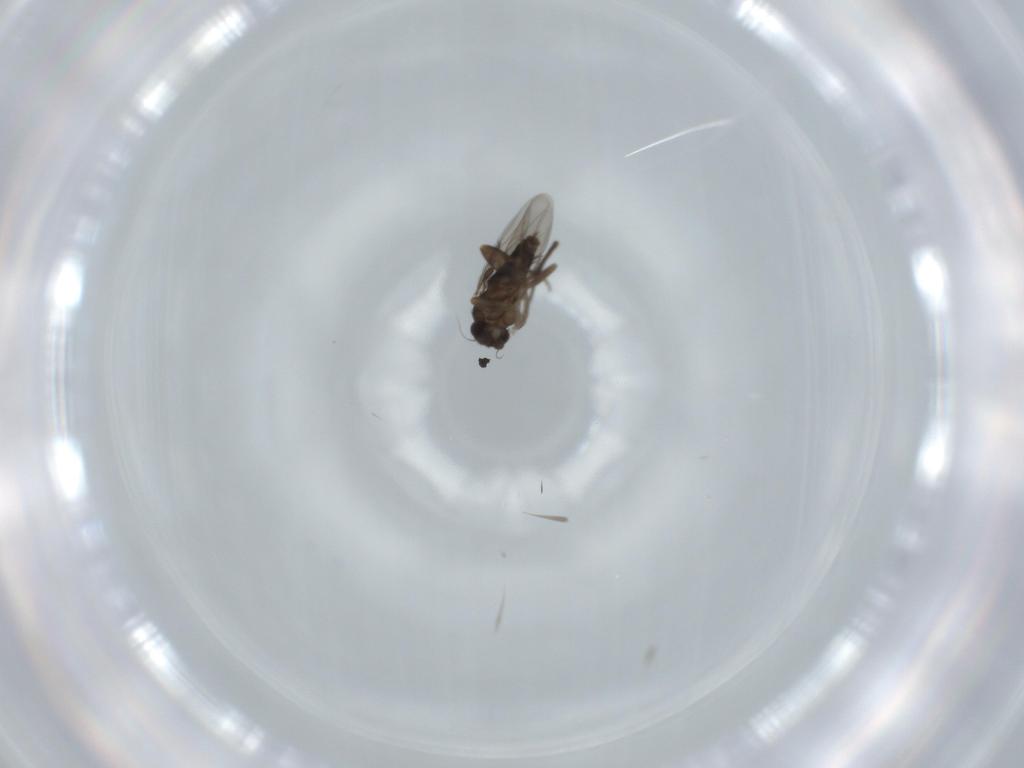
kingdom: Animalia
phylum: Arthropoda
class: Insecta
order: Diptera
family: Phoridae
